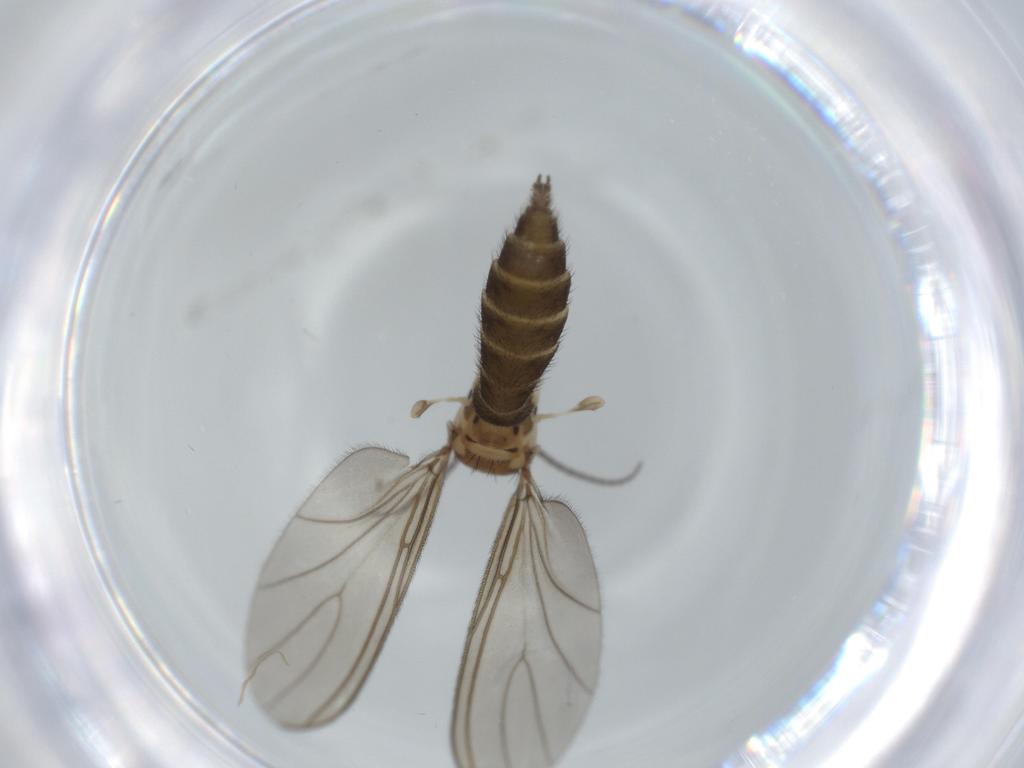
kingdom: Animalia
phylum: Arthropoda
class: Insecta
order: Diptera
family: Sciaridae
